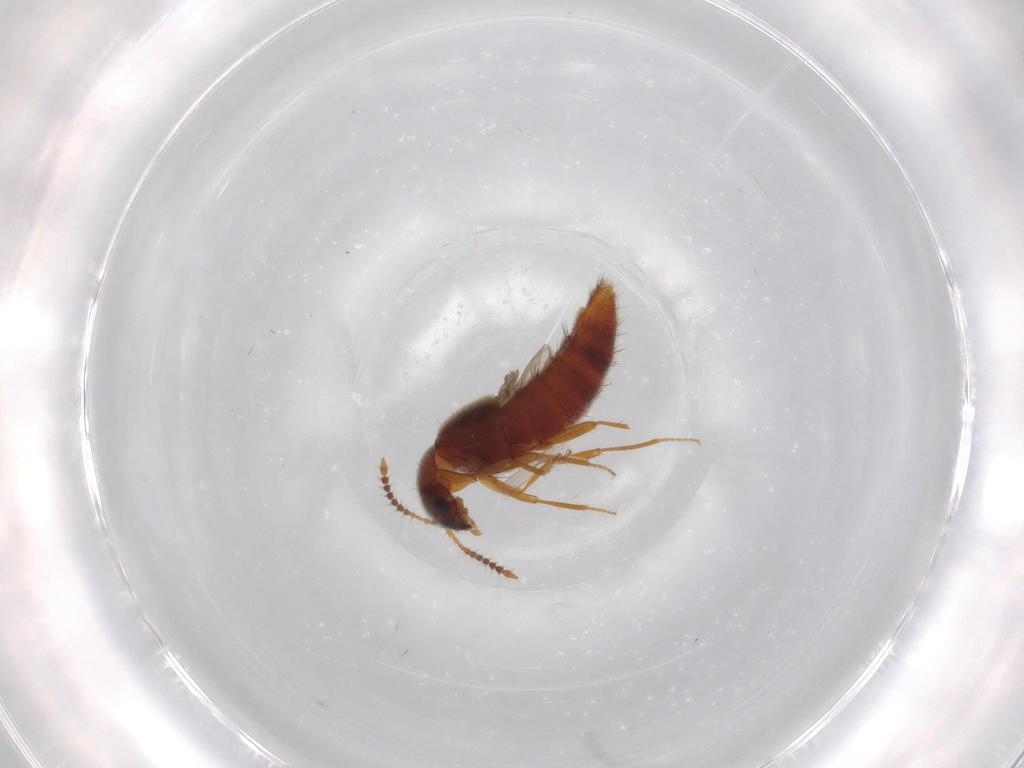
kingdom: Animalia
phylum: Arthropoda
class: Insecta
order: Coleoptera
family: Staphylinidae
